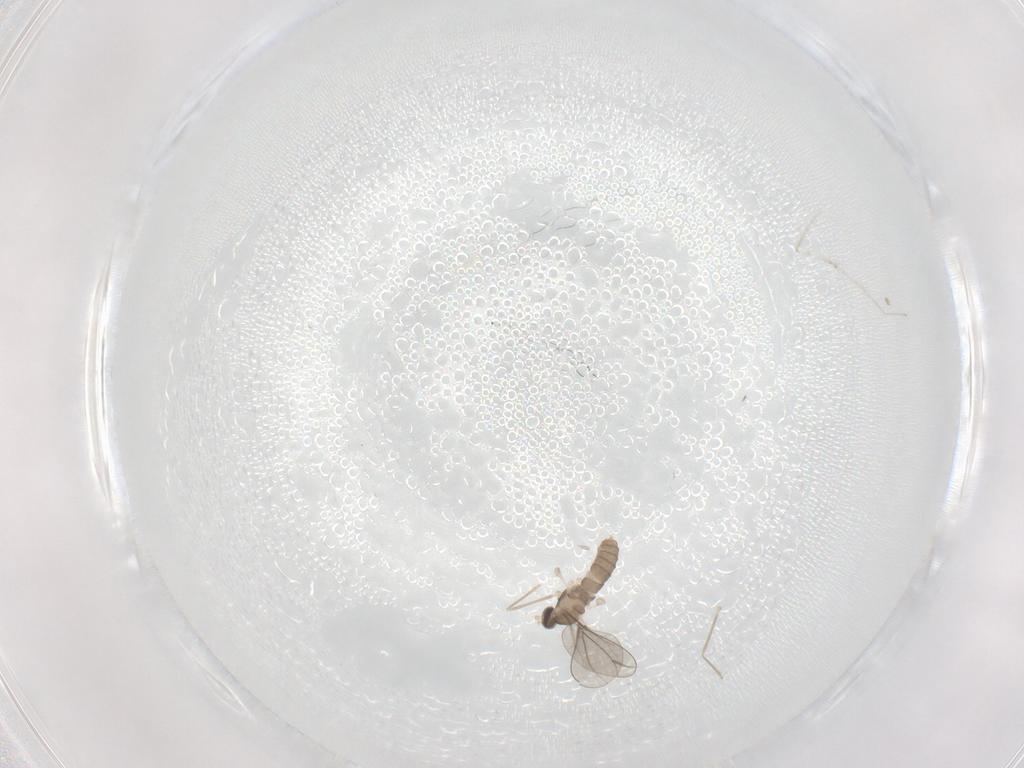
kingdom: Animalia
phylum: Arthropoda
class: Insecta
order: Diptera
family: Cecidomyiidae
